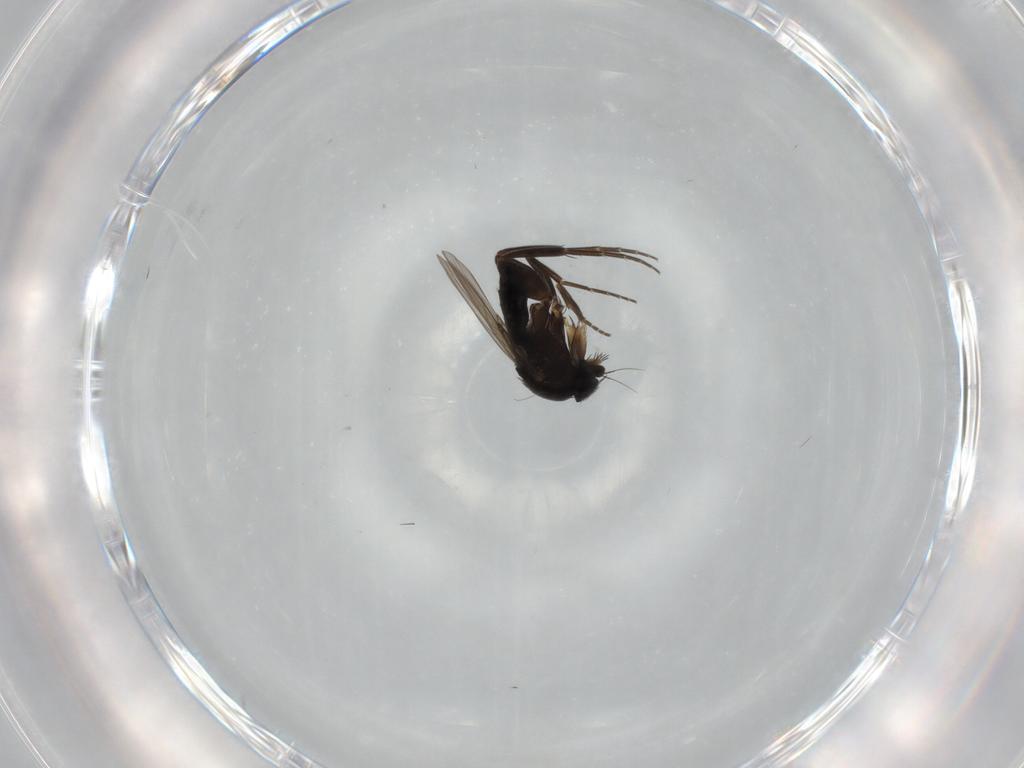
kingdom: Animalia
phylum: Arthropoda
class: Insecta
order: Diptera
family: Phoridae
